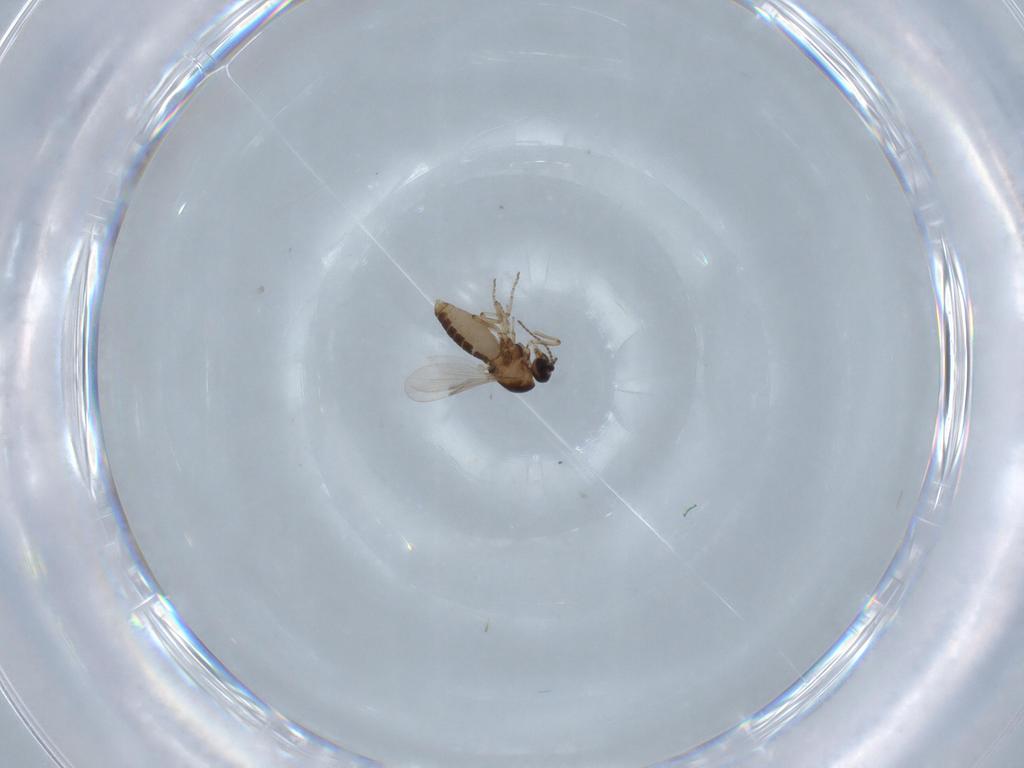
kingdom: Animalia
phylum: Arthropoda
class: Insecta
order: Diptera
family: Ceratopogonidae
